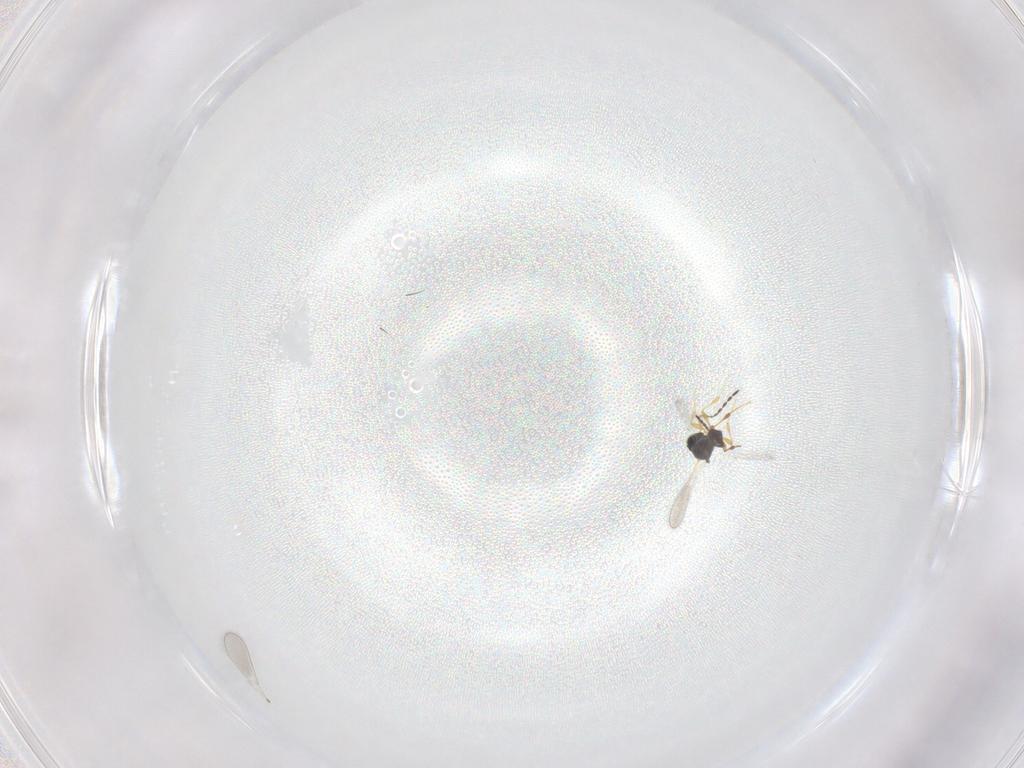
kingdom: Animalia
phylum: Arthropoda
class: Insecta
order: Hymenoptera
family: Platygastridae
